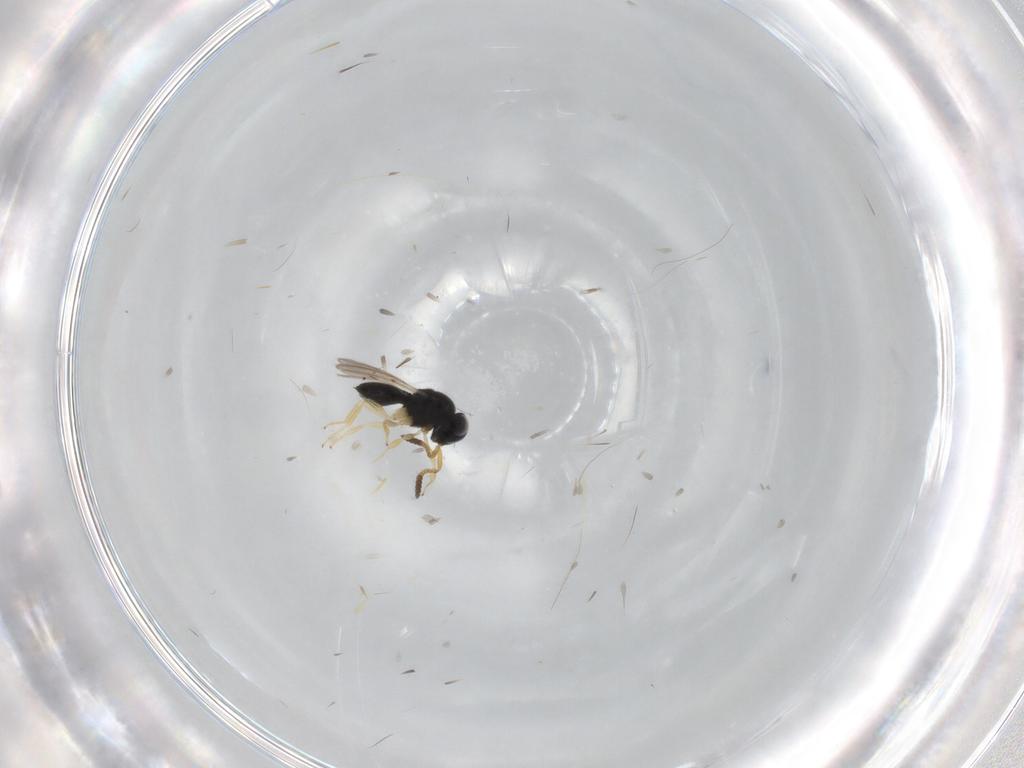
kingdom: Animalia
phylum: Arthropoda
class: Insecta
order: Hymenoptera
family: Scelionidae
